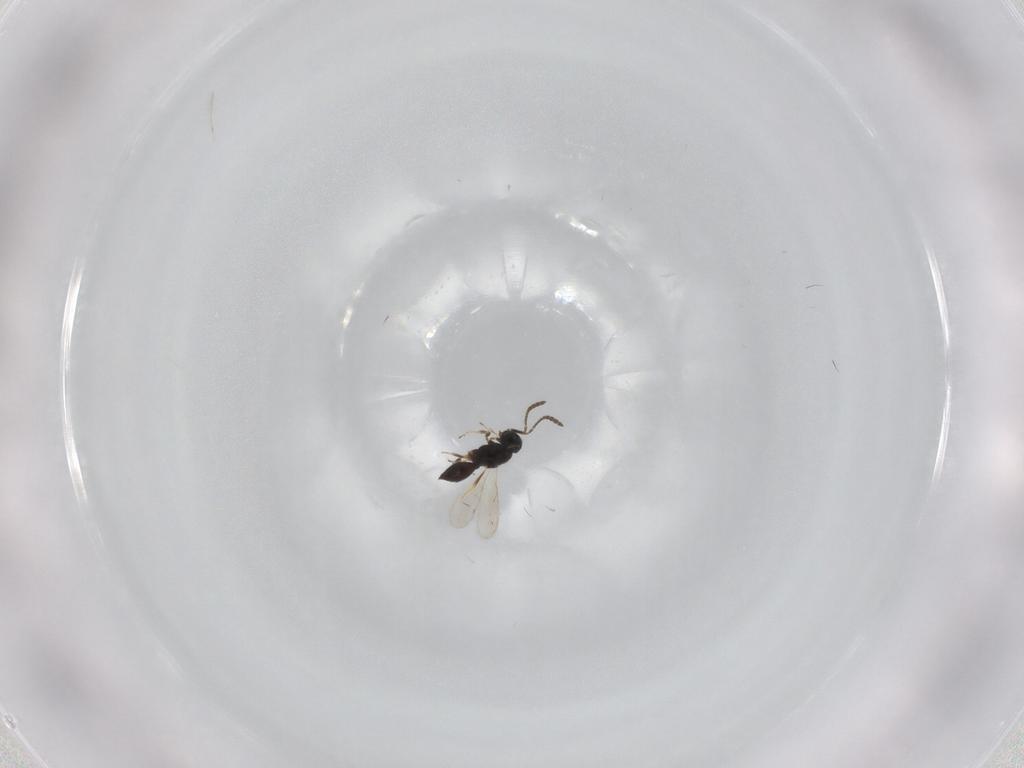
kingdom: Animalia
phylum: Arthropoda
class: Insecta
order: Hymenoptera
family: Scelionidae
